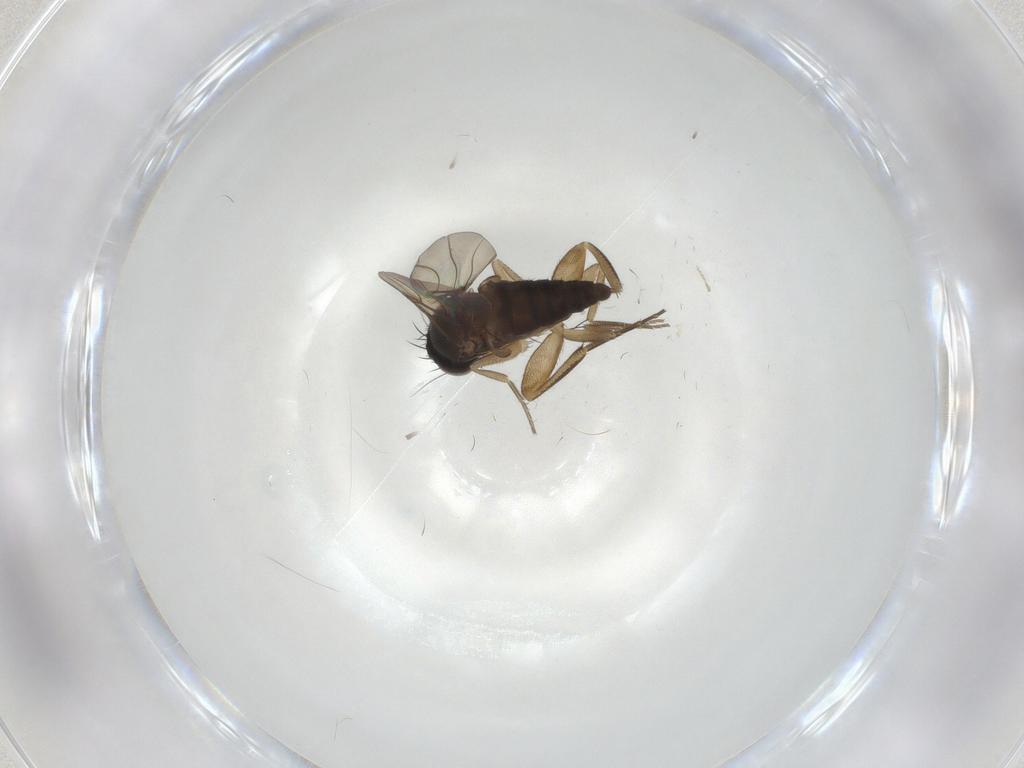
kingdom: Animalia
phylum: Arthropoda
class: Insecta
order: Diptera
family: Phoridae
